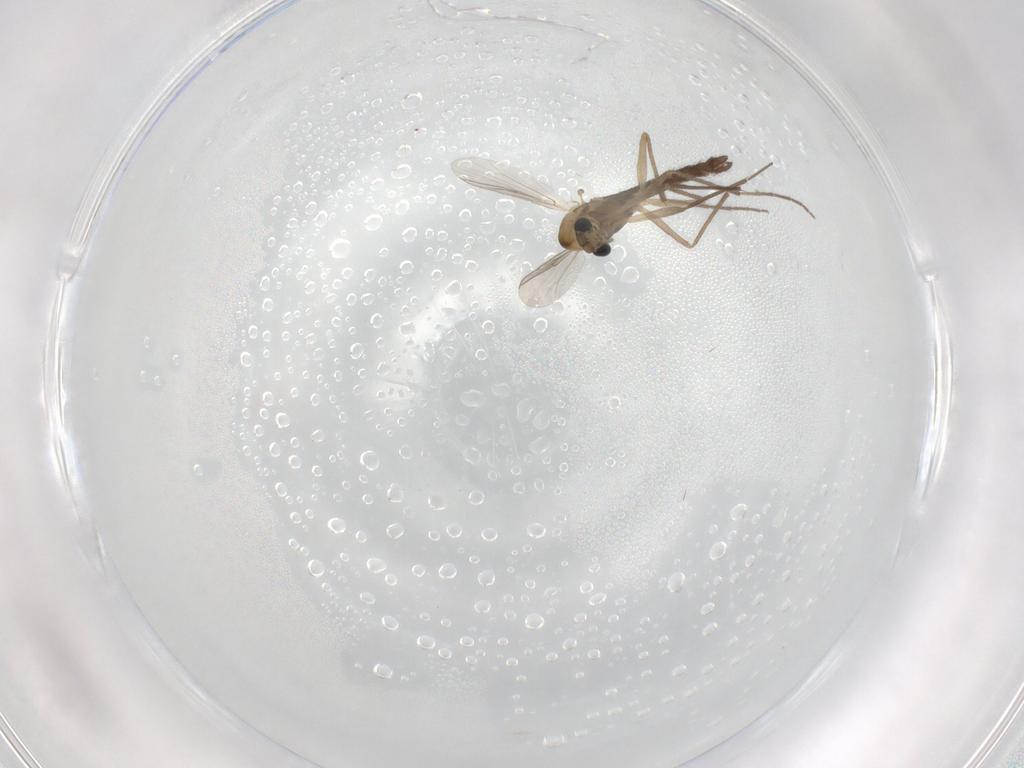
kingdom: Animalia
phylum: Arthropoda
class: Insecta
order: Diptera
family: Chironomidae
